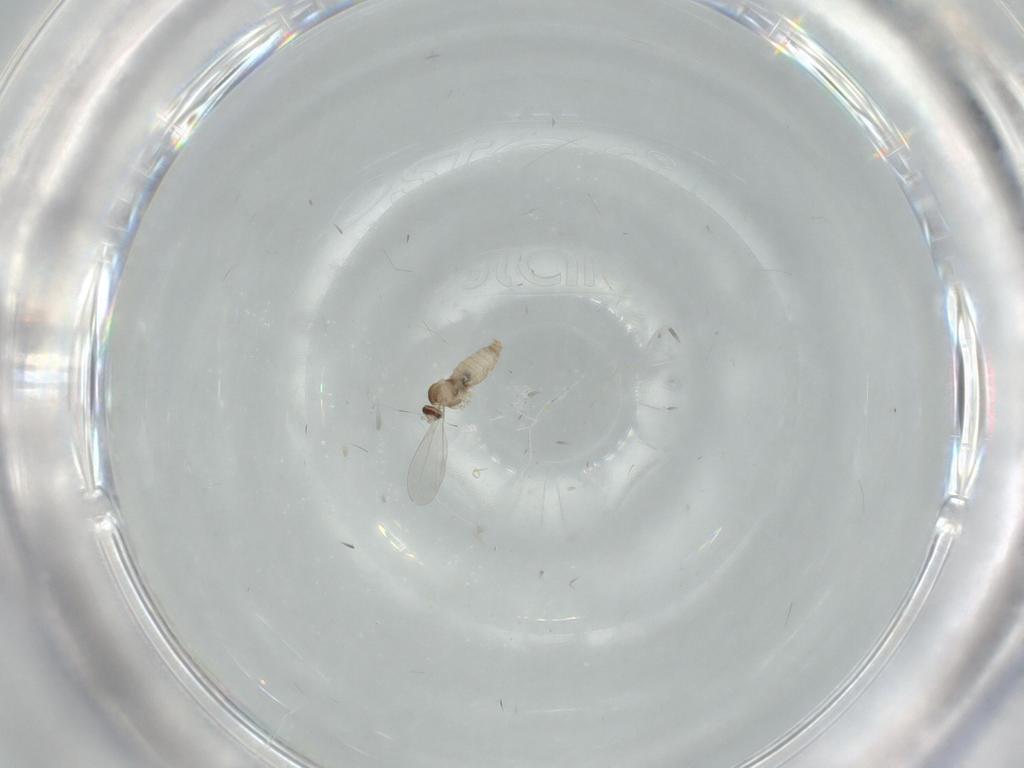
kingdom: Animalia
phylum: Arthropoda
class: Insecta
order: Diptera
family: Cecidomyiidae
